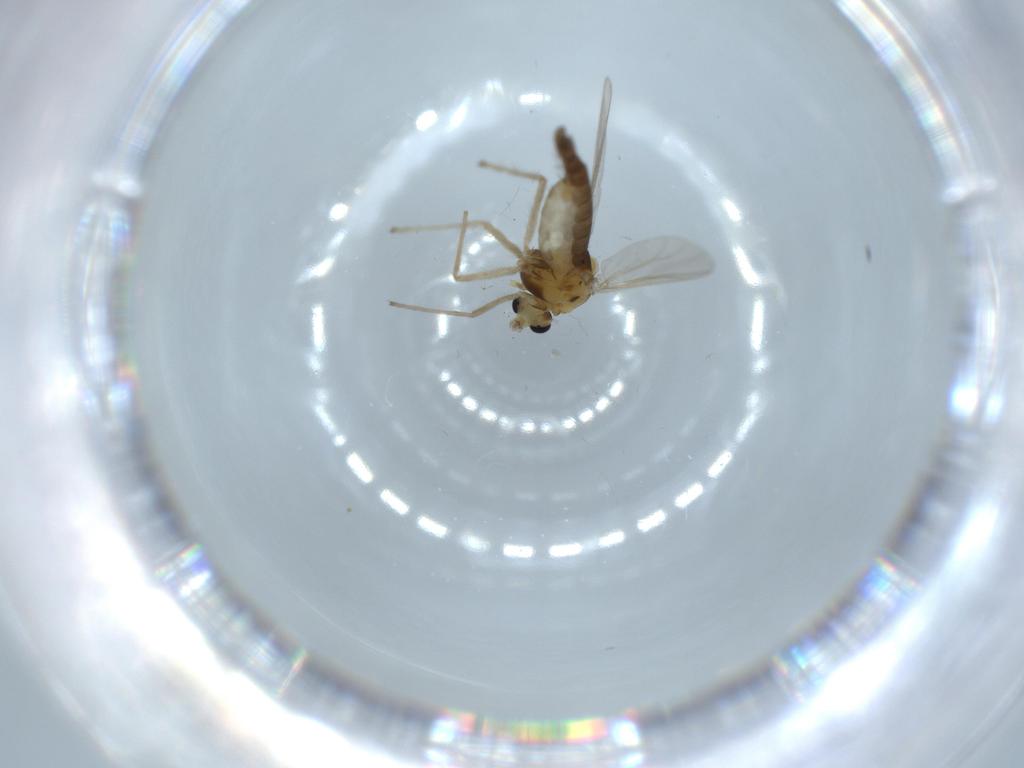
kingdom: Animalia
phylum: Arthropoda
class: Insecta
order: Diptera
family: Chironomidae
